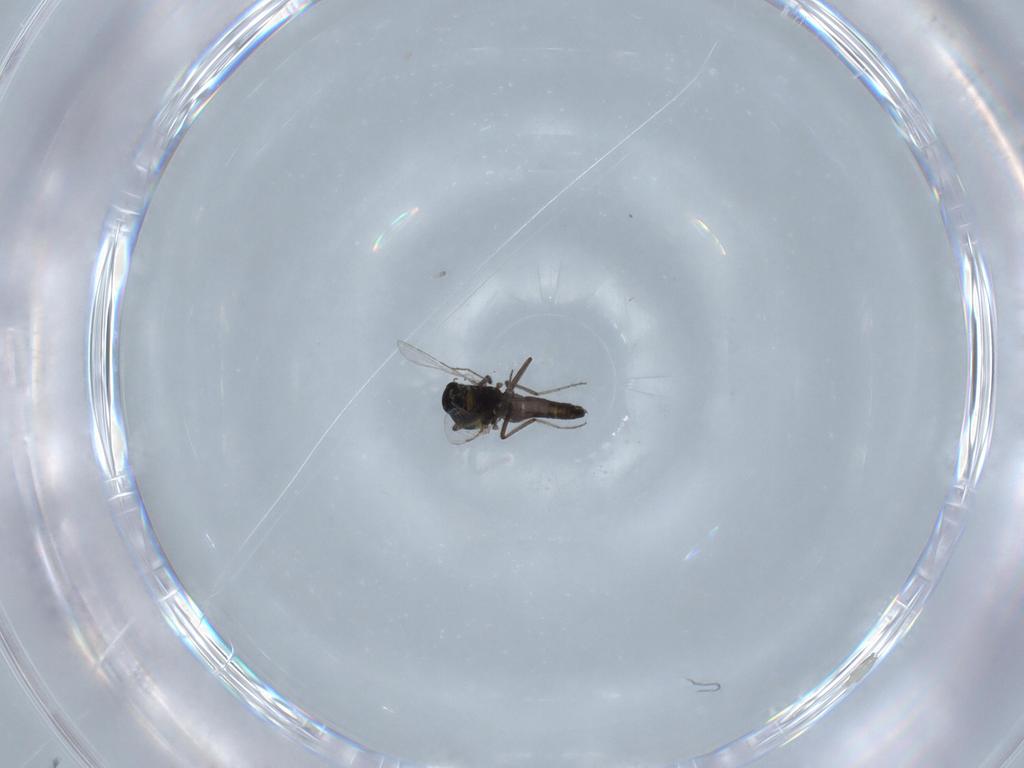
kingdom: Animalia
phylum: Arthropoda
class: Insecta
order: Diptera
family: Ceratopogonidae
